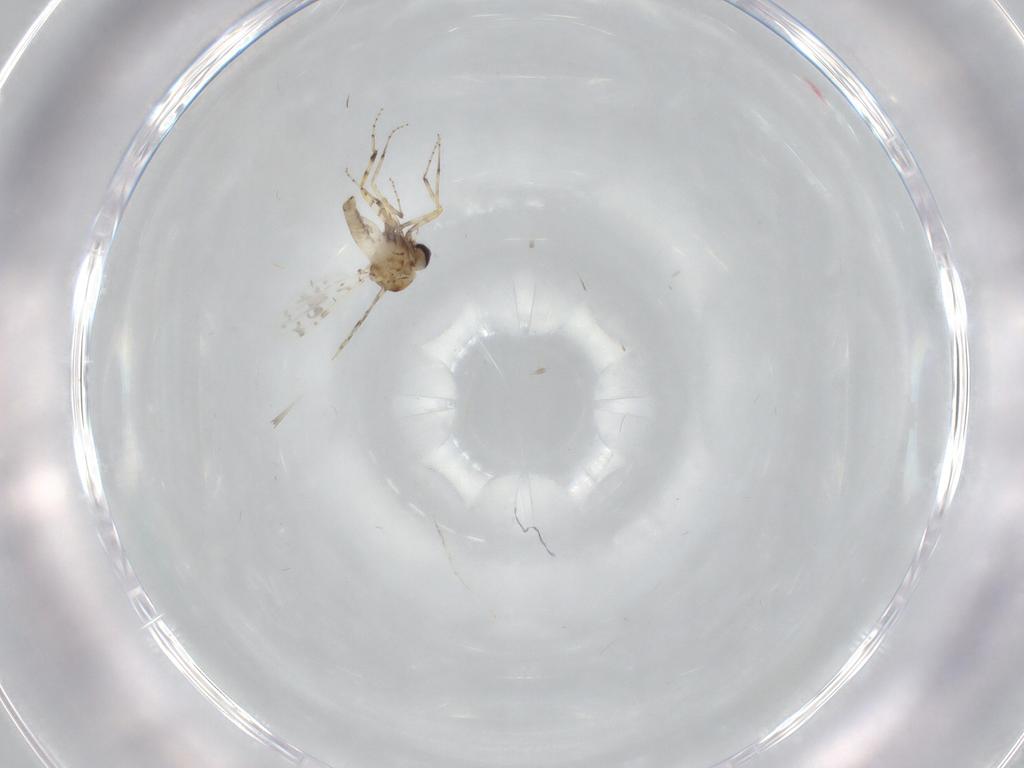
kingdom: Animalia
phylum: Arthropoda
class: Insecta
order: Diptera
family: Ceratopogonidae
